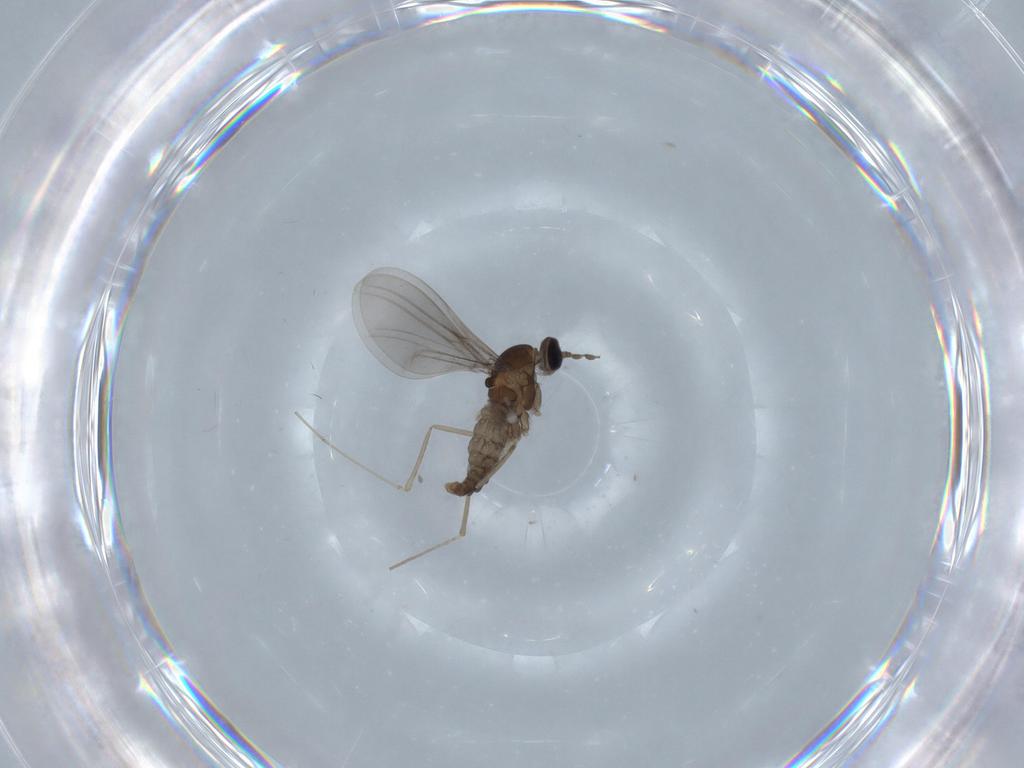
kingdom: Animalia
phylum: Arthropoda
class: Insecta
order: Diptera
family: Cecidomyiidae
